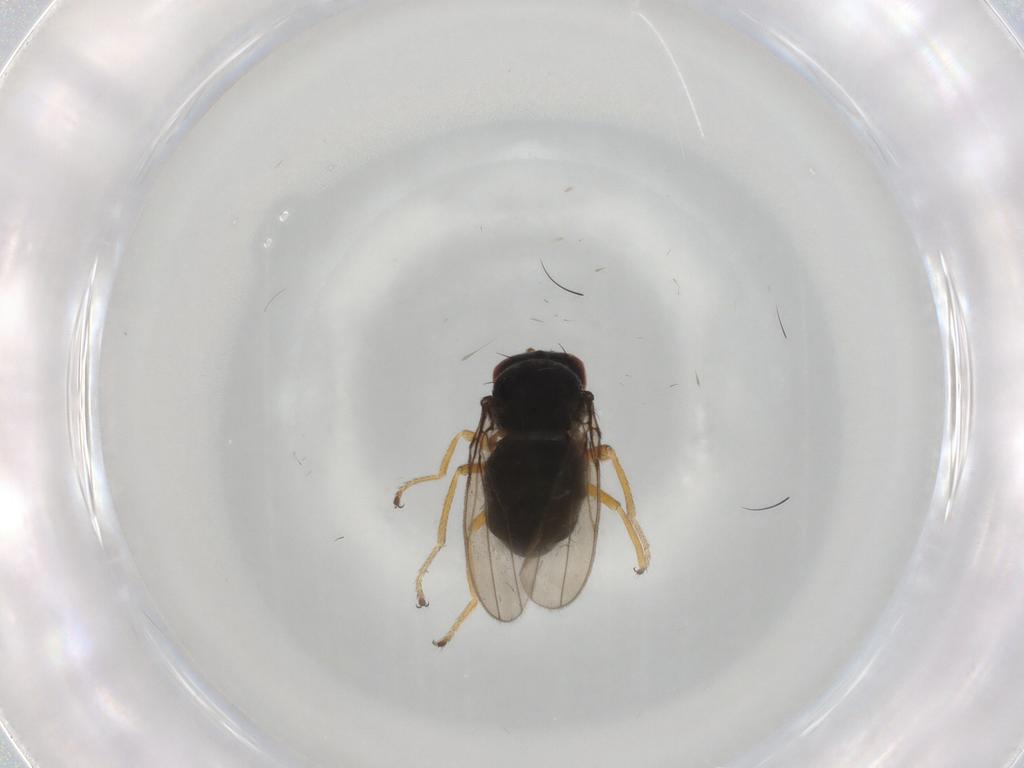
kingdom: Animalia
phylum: Arthropoda
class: Insecta
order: Diptera
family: Ephydridae
